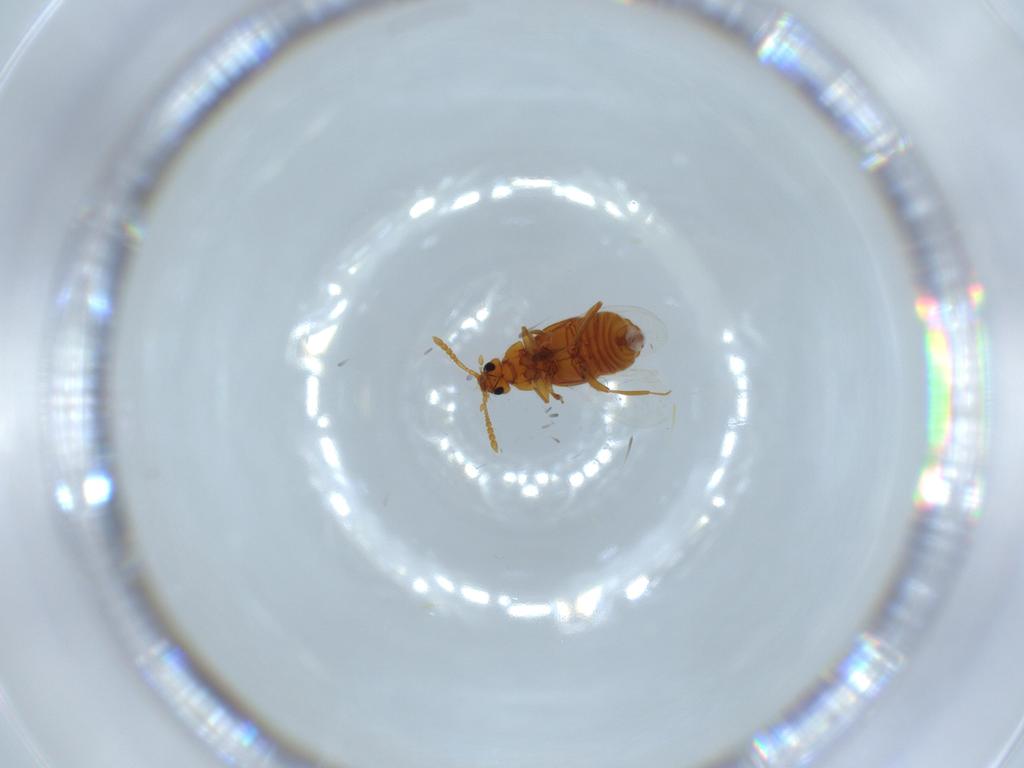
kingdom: Animalia
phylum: Arthropoda
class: Insecta
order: Coleoptera
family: Staphylinidae
